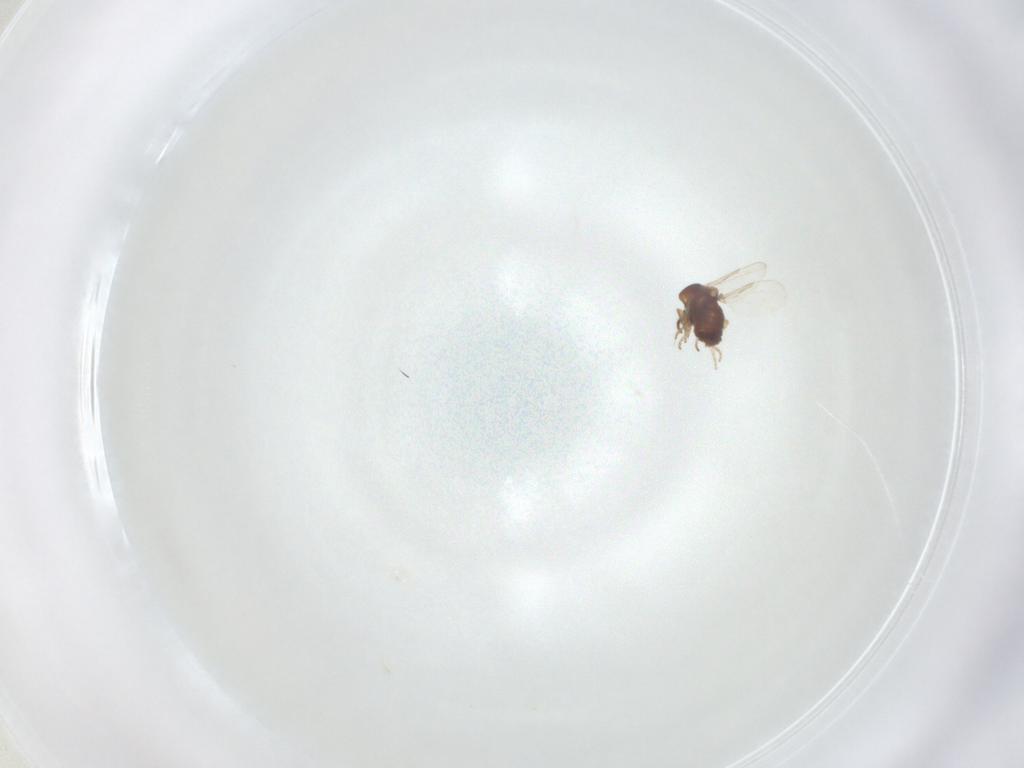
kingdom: Animalia
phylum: Arthropoda
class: Insecta
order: Diptera
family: Ceratopogonidae
